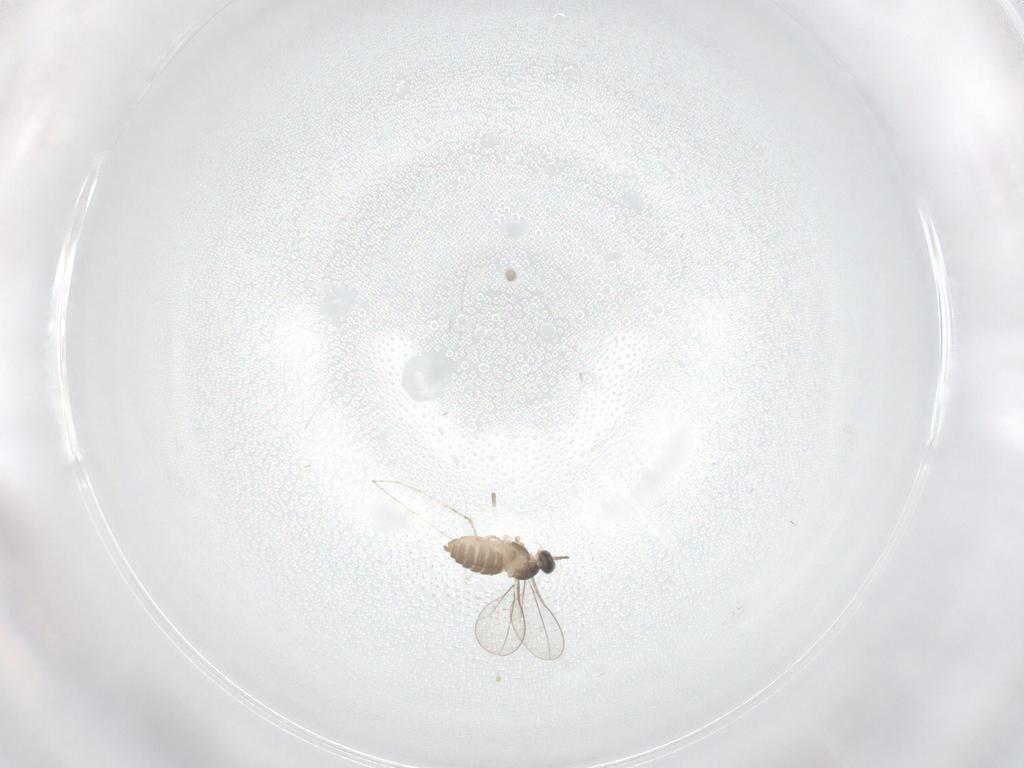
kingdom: Animalia
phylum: Arthropoda
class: Insecta
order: Diptera
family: Cecidomyiidae
